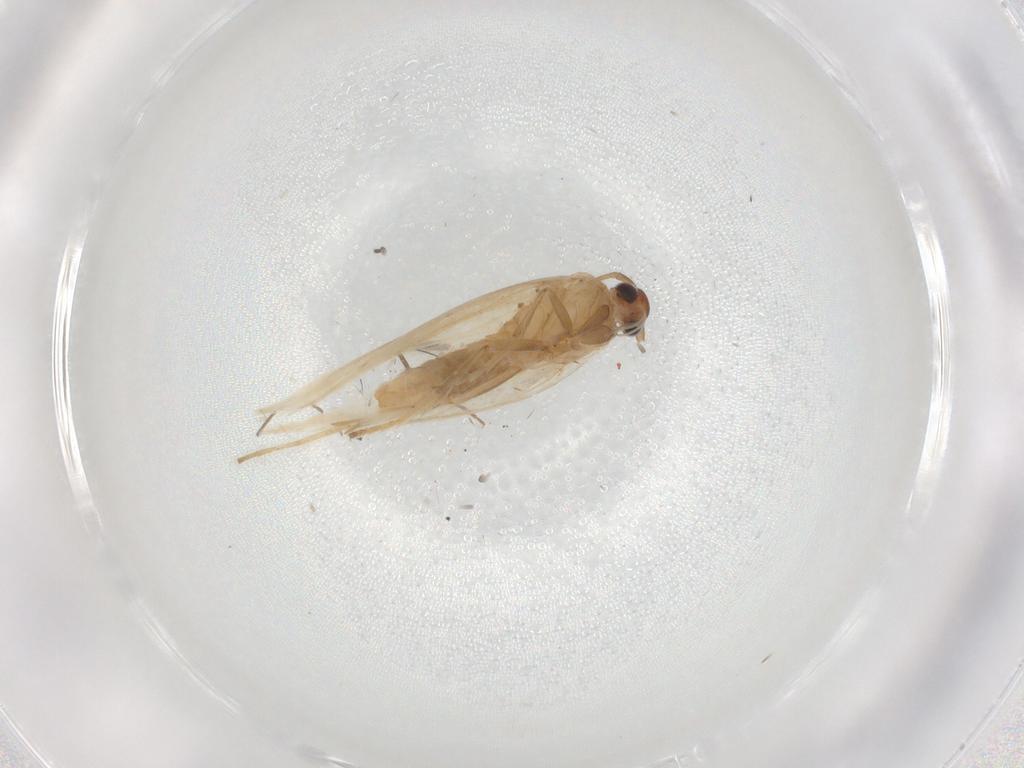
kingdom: Animalia
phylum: Arthropoda
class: Insecta
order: Lepidoptera
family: Gelechiidae
